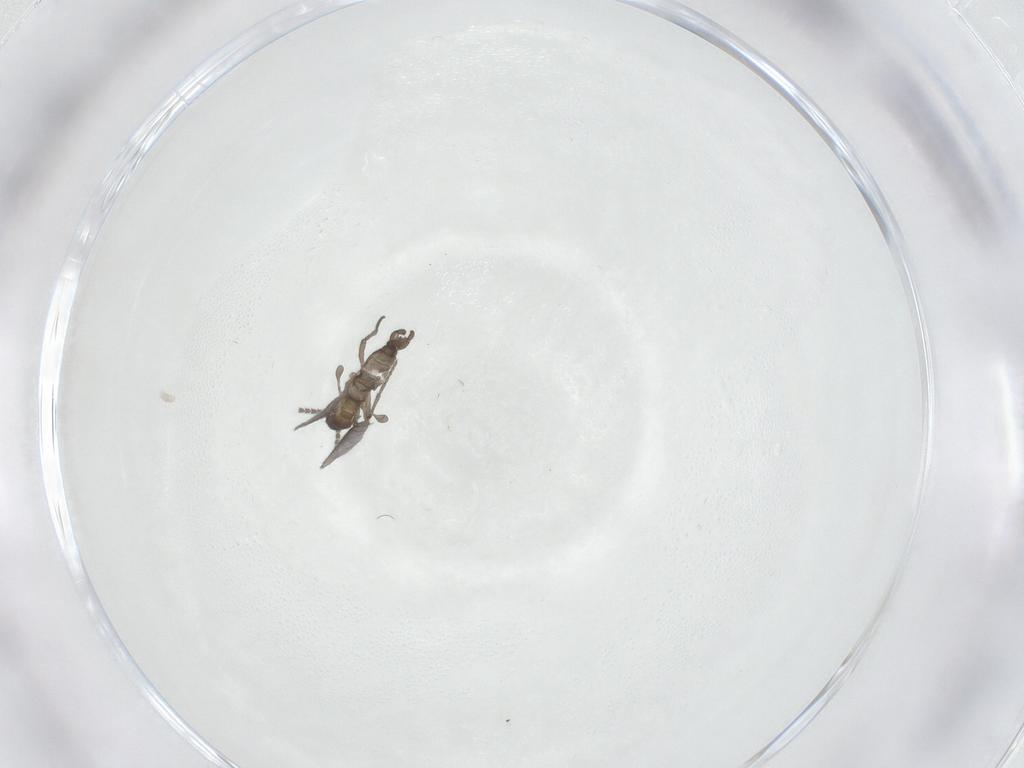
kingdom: Animalia
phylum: Arthropoda
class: Insecta
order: Diptera
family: Sciaridae
